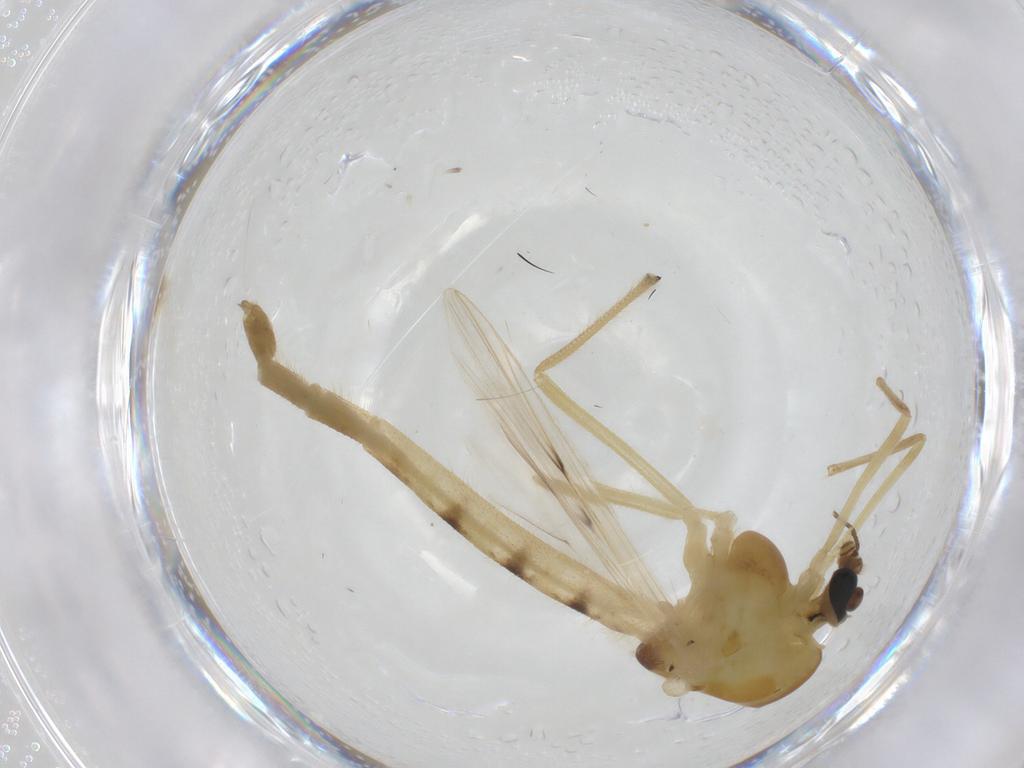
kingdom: Animalia
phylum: Arthropoda
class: Insecta
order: Diptera
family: Chironomidae
